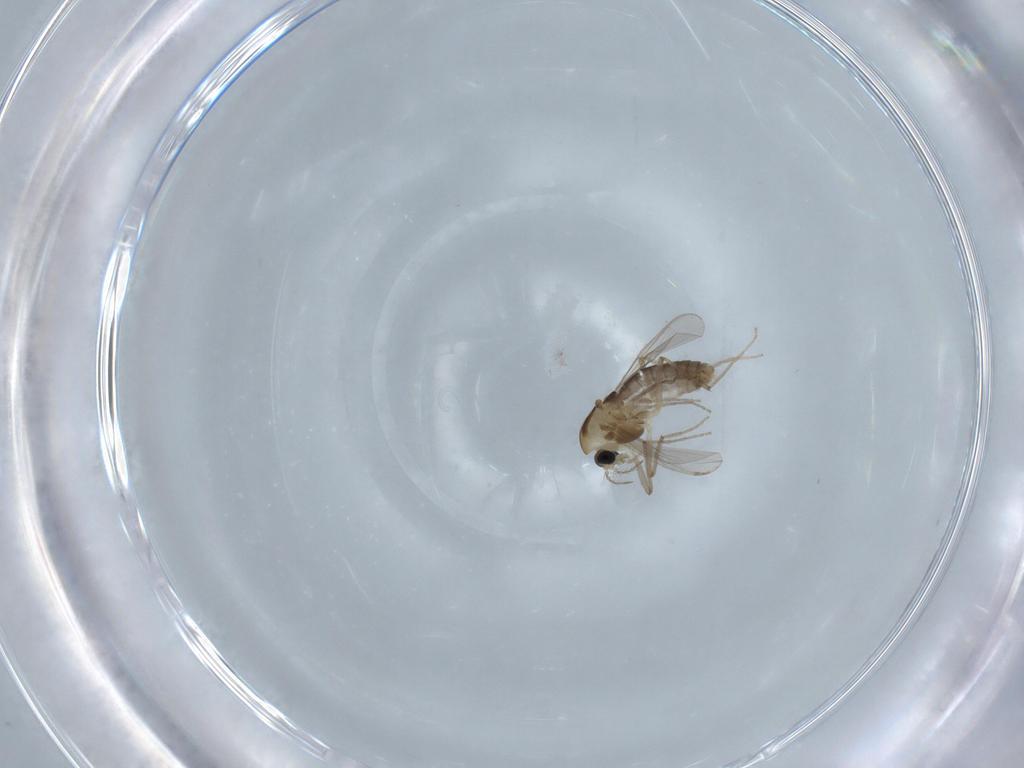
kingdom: Animalia
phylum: Arthropoda
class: Insecta
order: Diptera
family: Chironomidae
